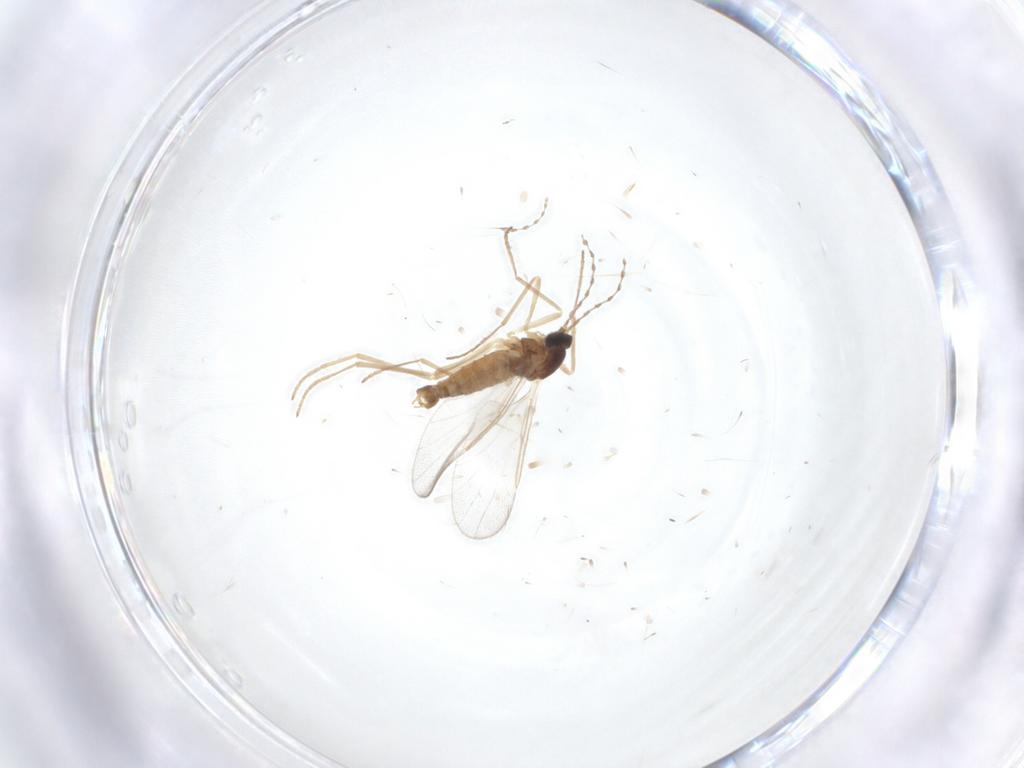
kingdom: Animalia
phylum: Arthropoda
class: Insecta
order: Diptera
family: Cecidomyiidae
